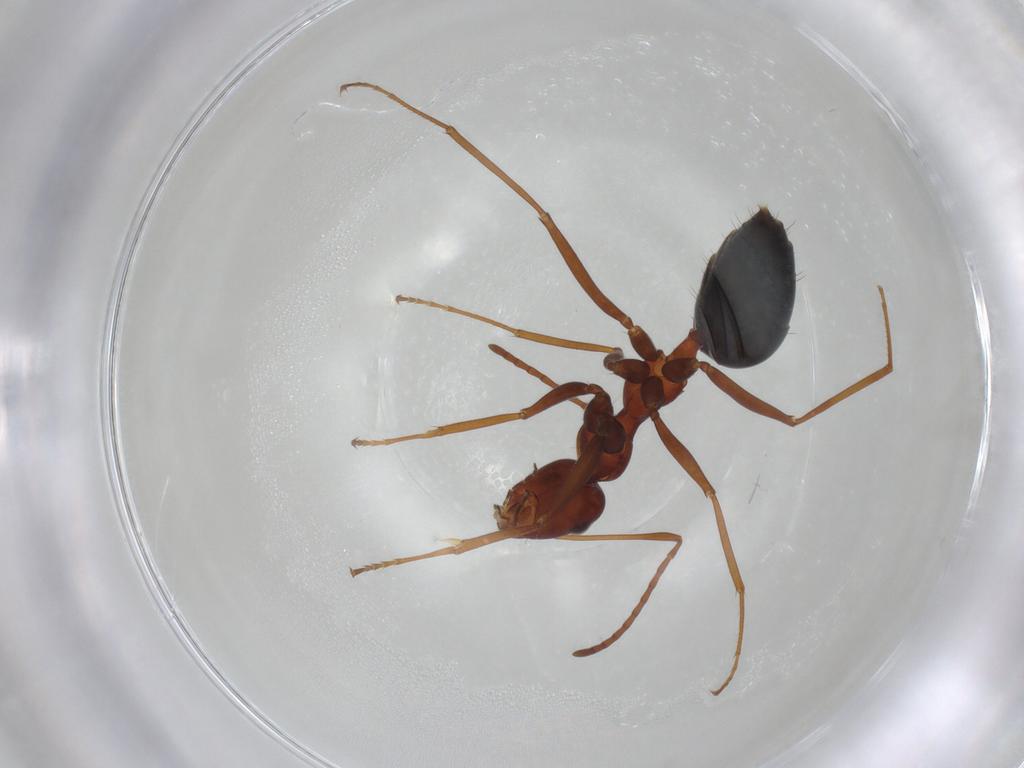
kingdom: Animalia
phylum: Arthropoda
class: Insecta
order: Hymenoptera
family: Formicidae
